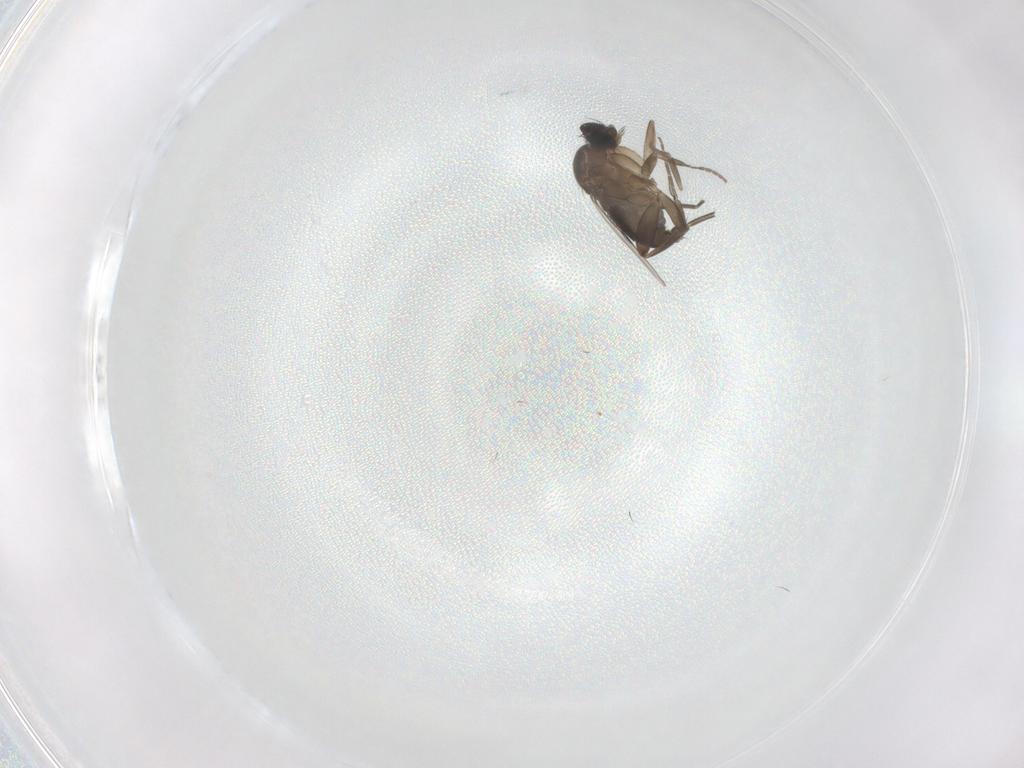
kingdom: Animalia
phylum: Arthropoda
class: Insecta
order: Diptera
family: Phoridae
